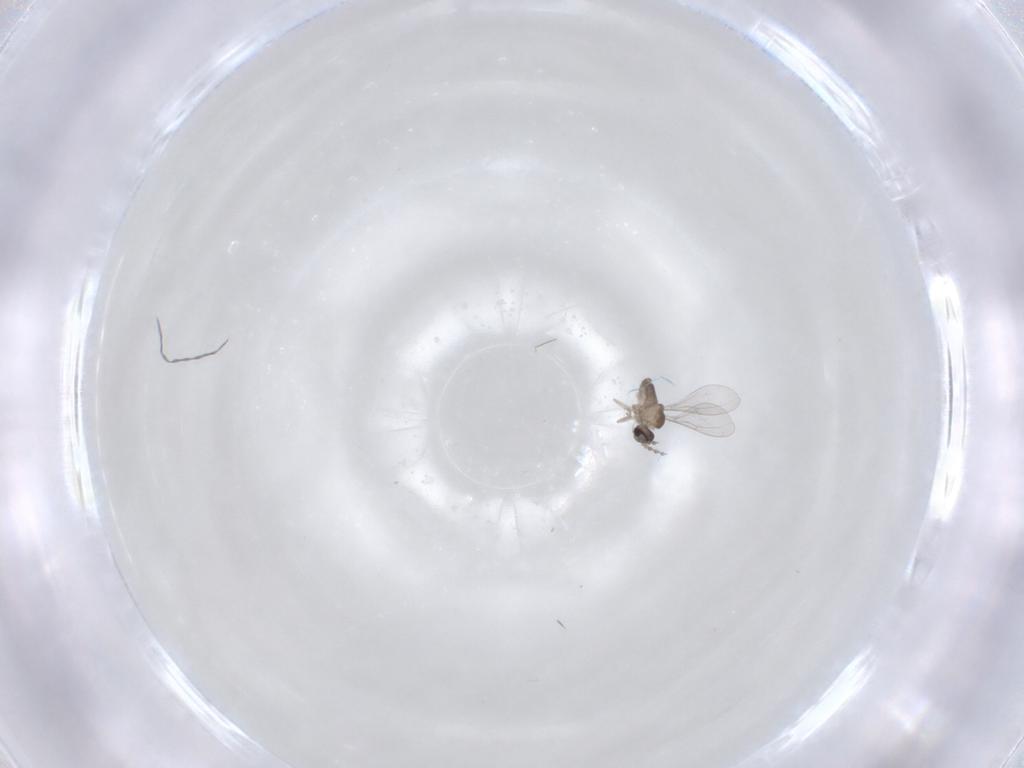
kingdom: Animalia
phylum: Arthropoda
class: Insecta
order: Diptera
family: Cecidomyiidae
